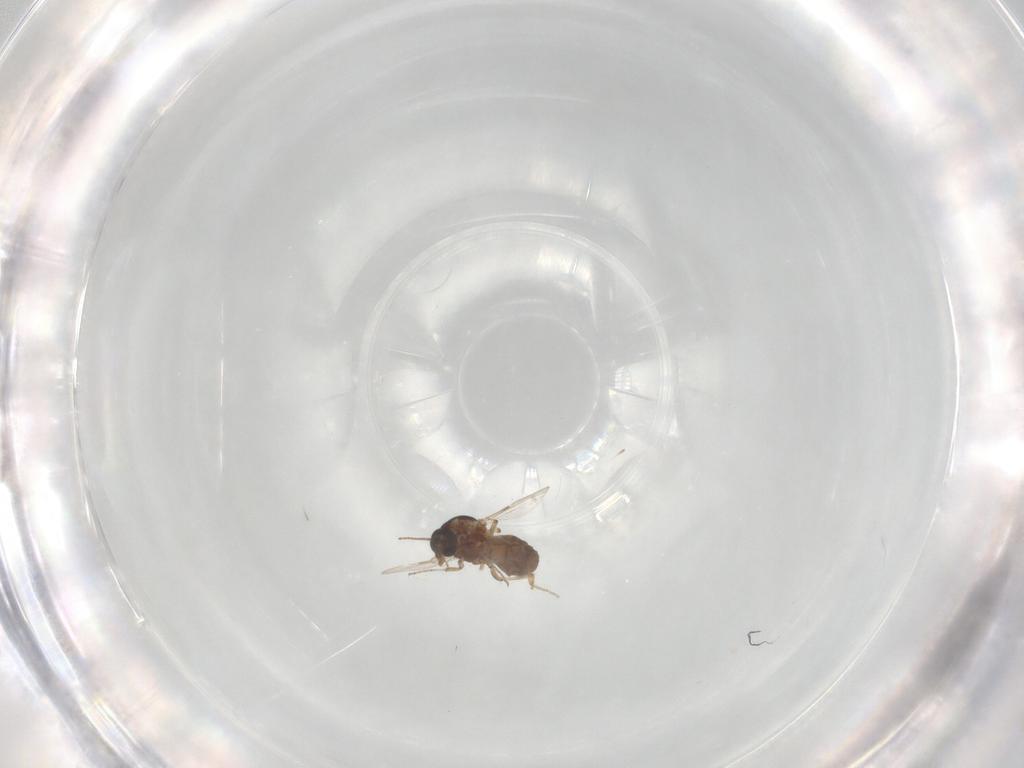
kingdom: Animalia
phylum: Arthropoda
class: Insecta
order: Diptera
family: Ceratopogonidae
